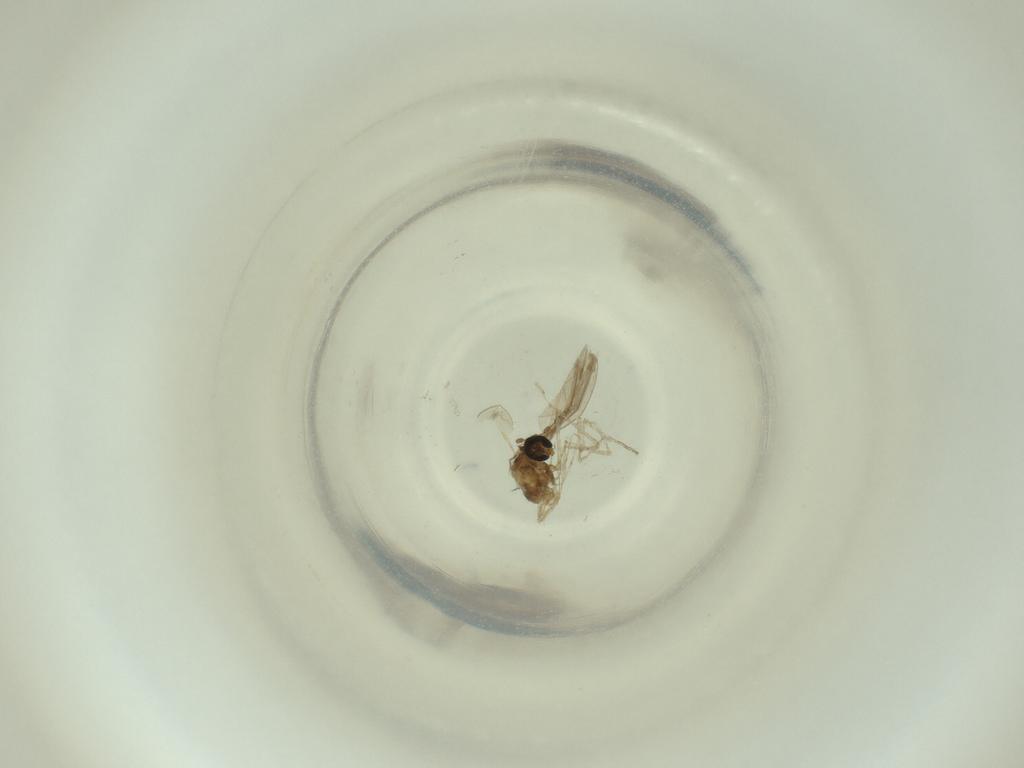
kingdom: Animalia
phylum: Arthropoda
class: Insecta
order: Diptera
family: Cecidomyiidae
